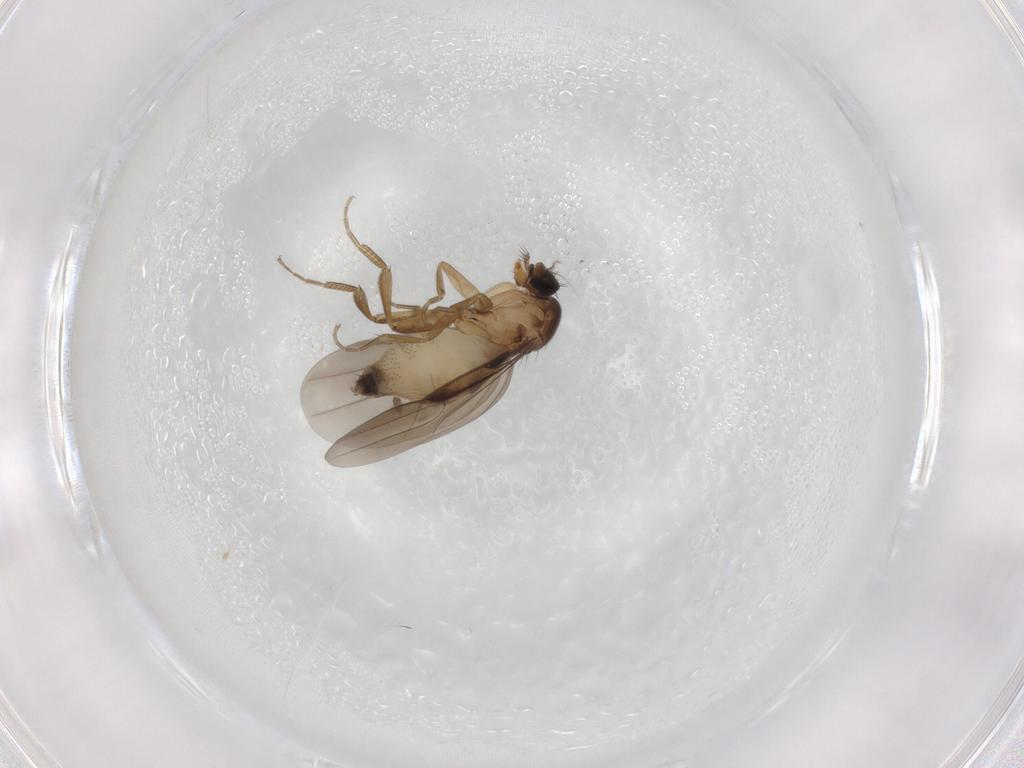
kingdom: Animalia
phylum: Arthropoda
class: Insecta
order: Diptera
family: Phoridae
